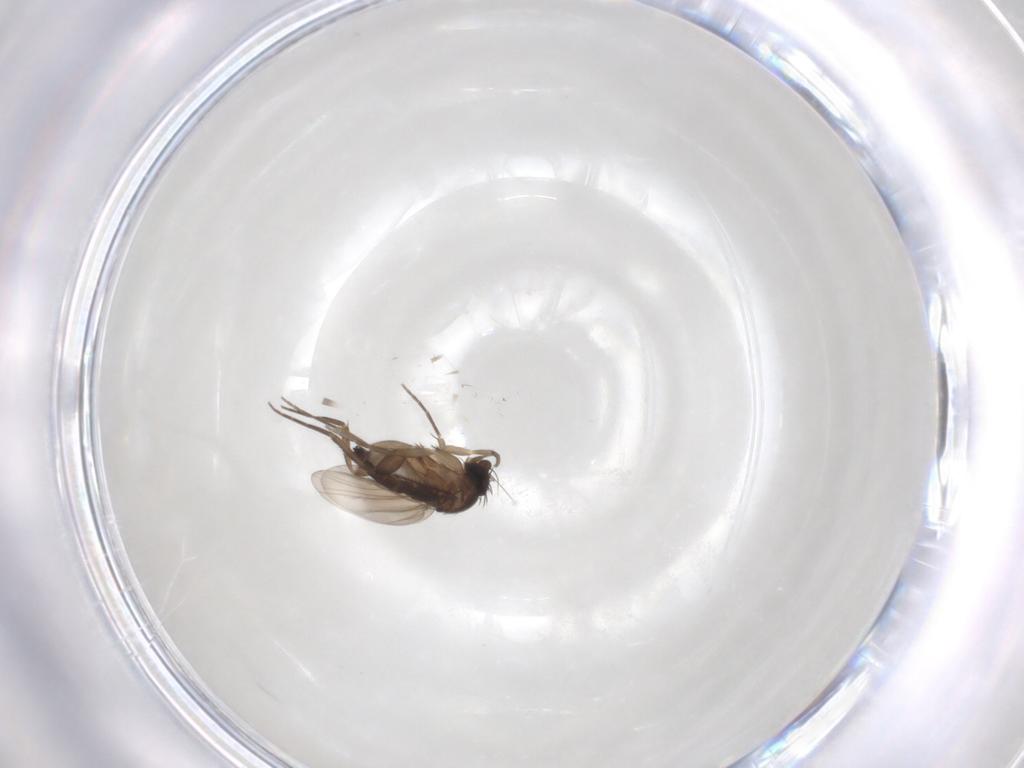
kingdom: Animalia
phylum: Arthropoda
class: Insecta
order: Diptera
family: Phoridae
